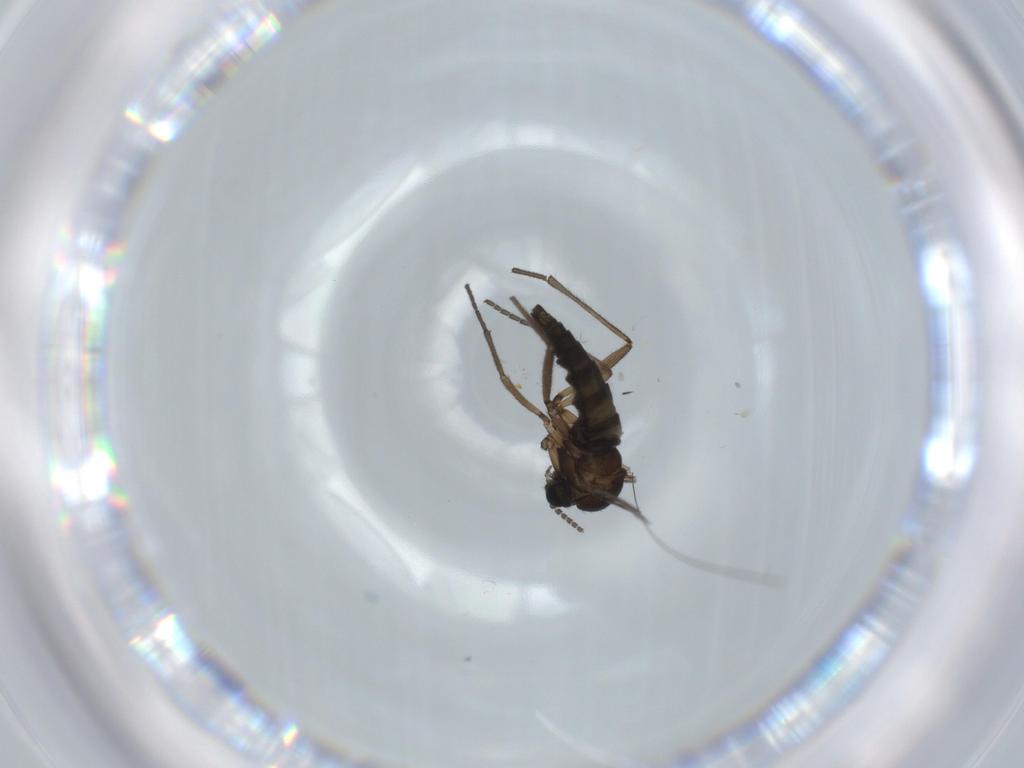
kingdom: Animalia
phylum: Arthropoda
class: Insecta
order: Diptera
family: Sciaridae
